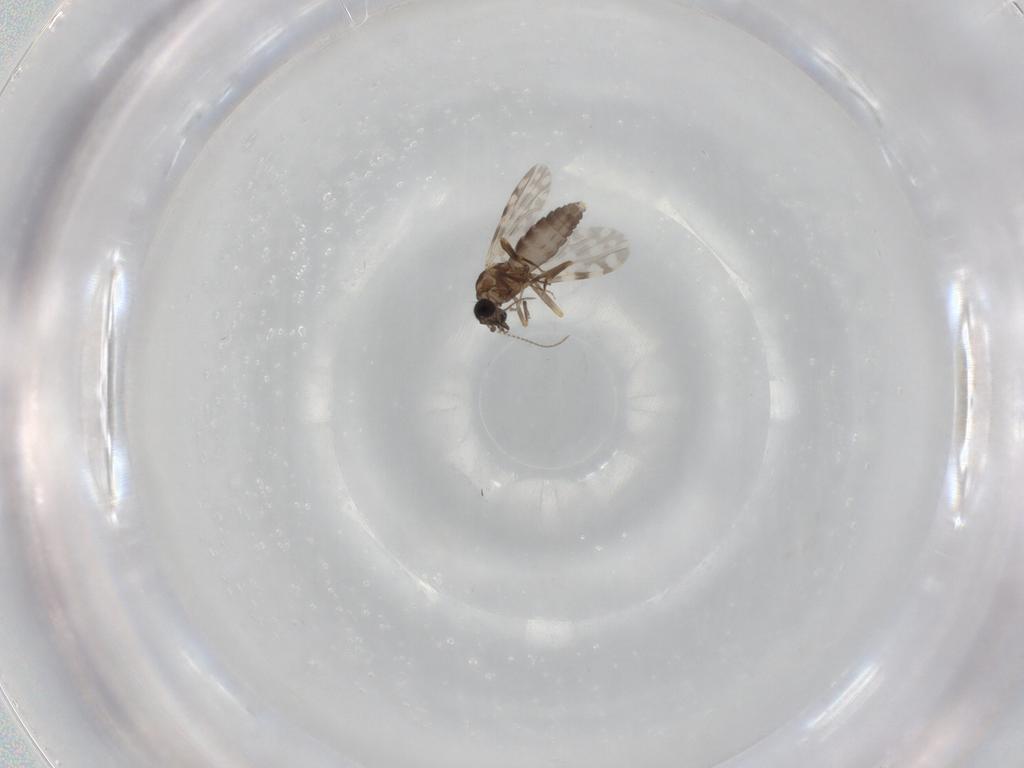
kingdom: Animalia
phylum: Arthropoda
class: Insecta
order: Diptera
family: Ceratopogonidae
